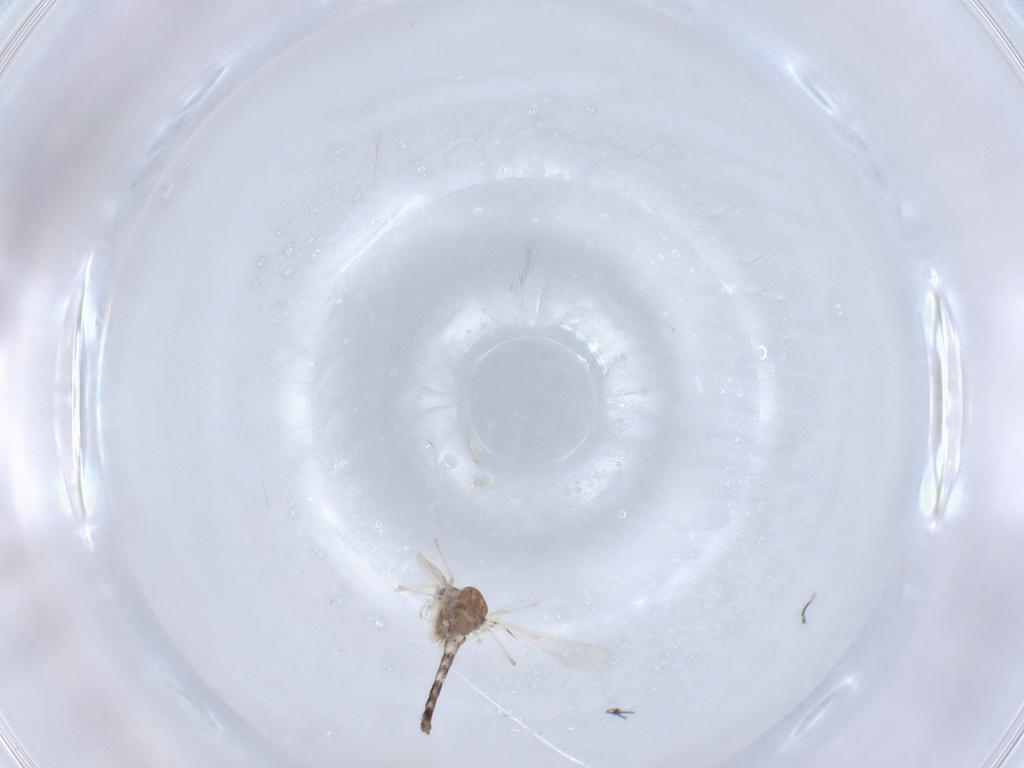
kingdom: Animalia
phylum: Arthropoda
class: Insecta
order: Diptera
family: Chironomidae
